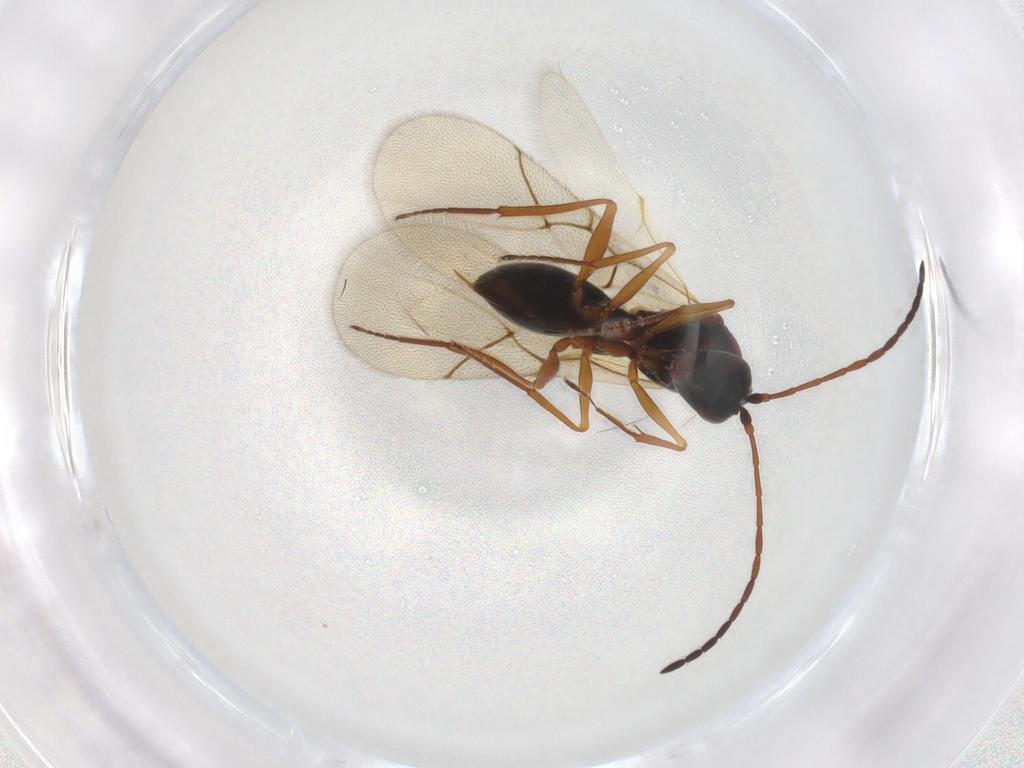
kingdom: Animalia
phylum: Arthropoda
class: Insecta
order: Hymenoptera
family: Figitidae
